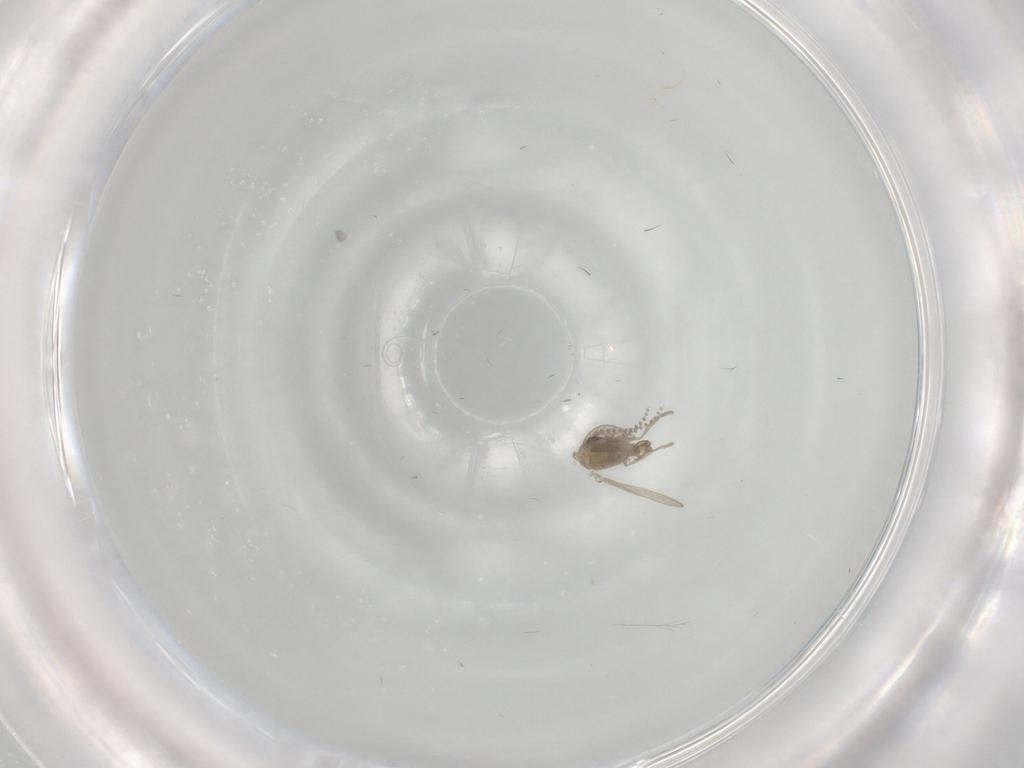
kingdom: Animalia
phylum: Arthropoda
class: Insecta
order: Diptera
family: Psychodidae
